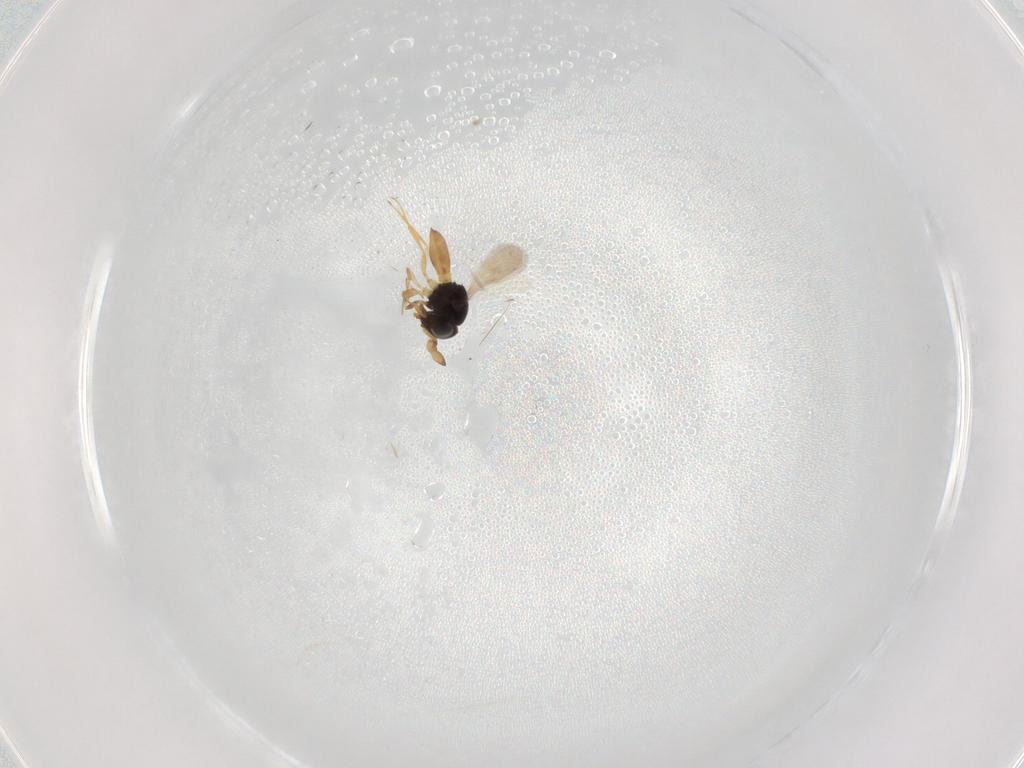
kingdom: Animalia
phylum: Arthropoda
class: Insecta
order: Hymenoptera
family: Scelionidae
